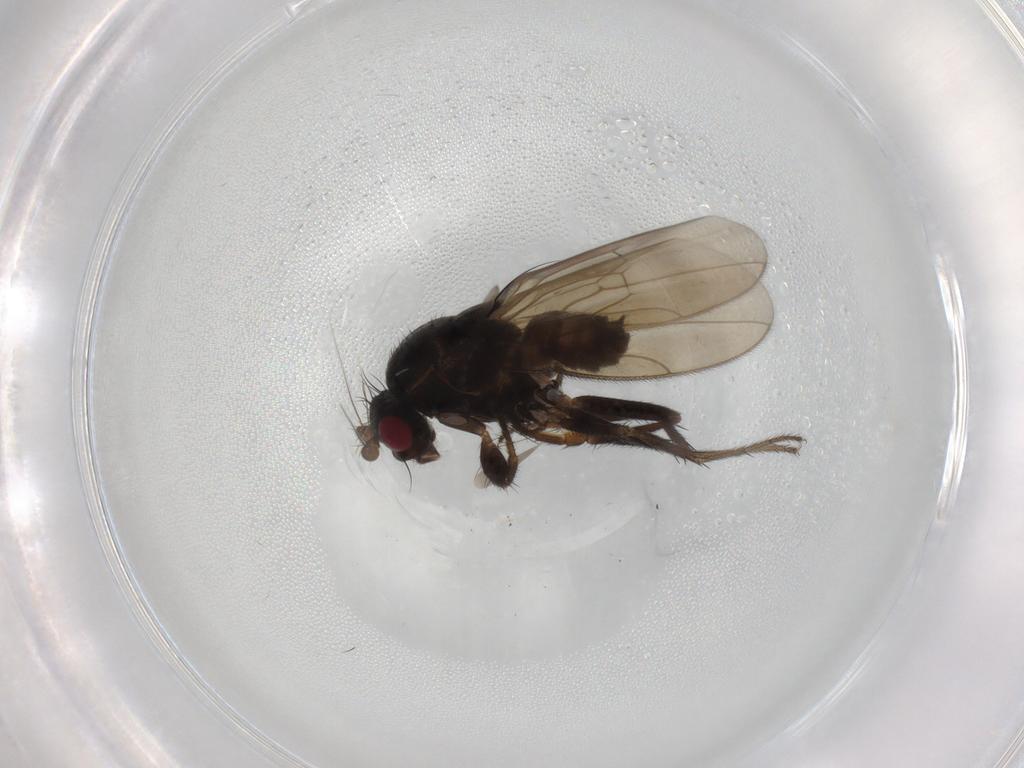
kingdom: Animalia
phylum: Arthropoda
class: Insecta
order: Diptera
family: Sphaeroceridae
